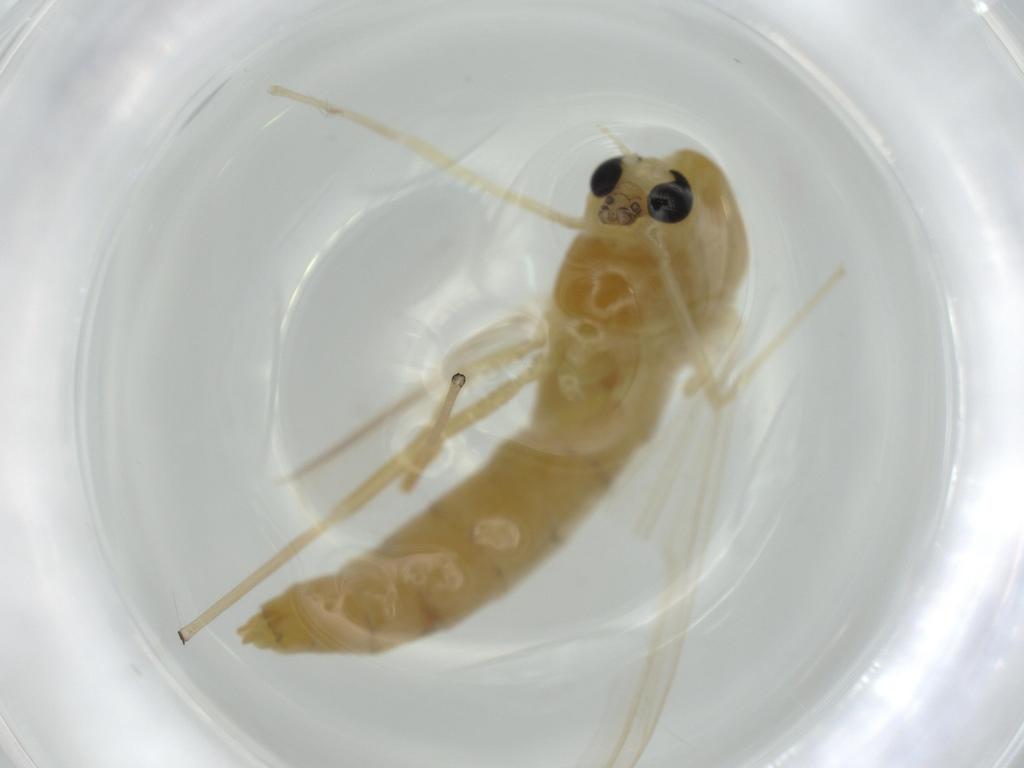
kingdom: Animalia
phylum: Arthropoda
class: Insecta
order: Diptera
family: Chironomidae
